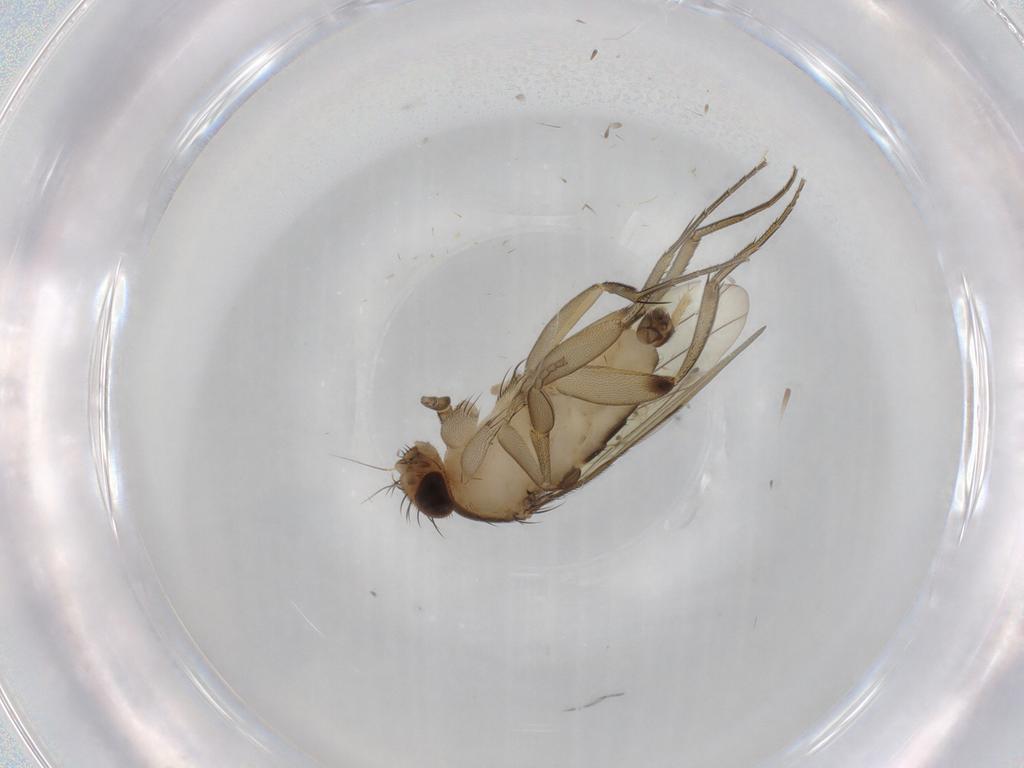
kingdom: Animalia
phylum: Arthropoda
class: Insecta
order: Diptera
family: Phoridae
